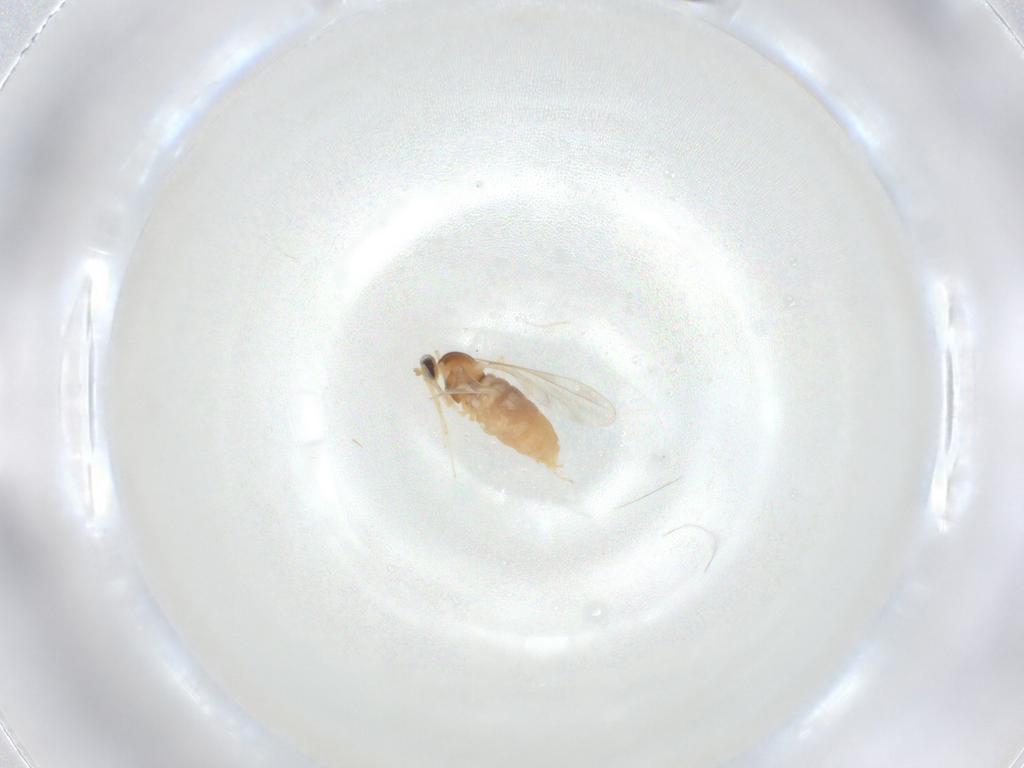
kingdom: Animalia
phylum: Arthropoda
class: Insecta
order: Diptera
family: Cecidomyiidae
